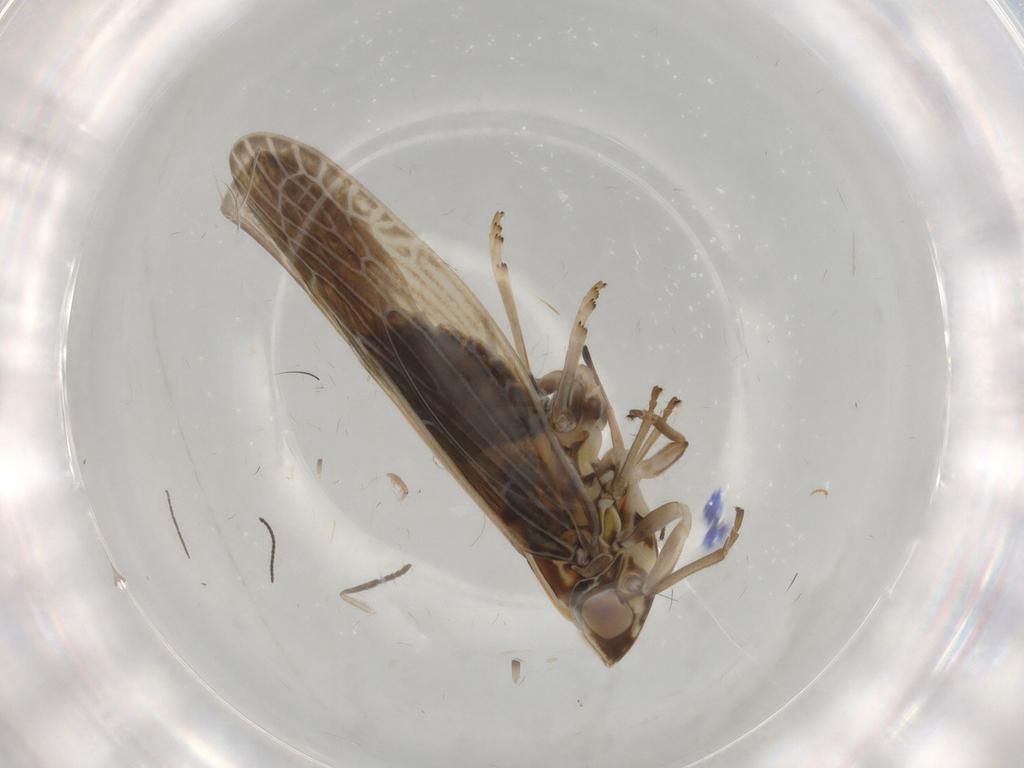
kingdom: Animalia
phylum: Arthropoda
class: Insecta
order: Hemiptera
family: Achilidae
